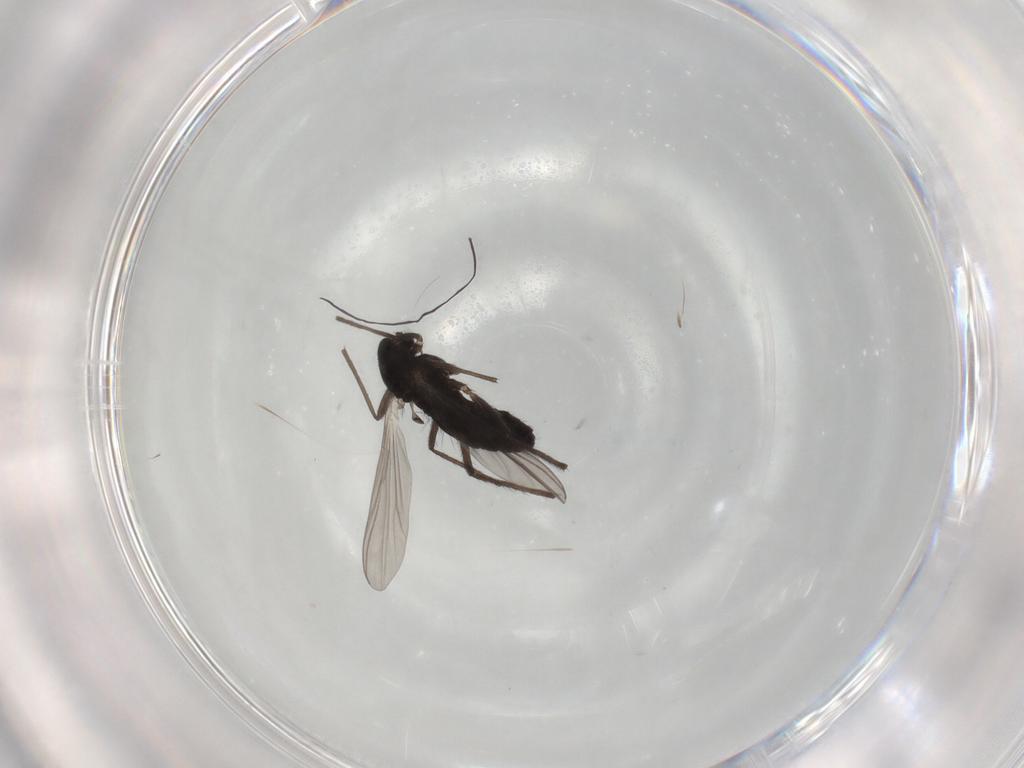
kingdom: Animalia
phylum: Arthropoda
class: Insecta
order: Diptera
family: Chironomidae
